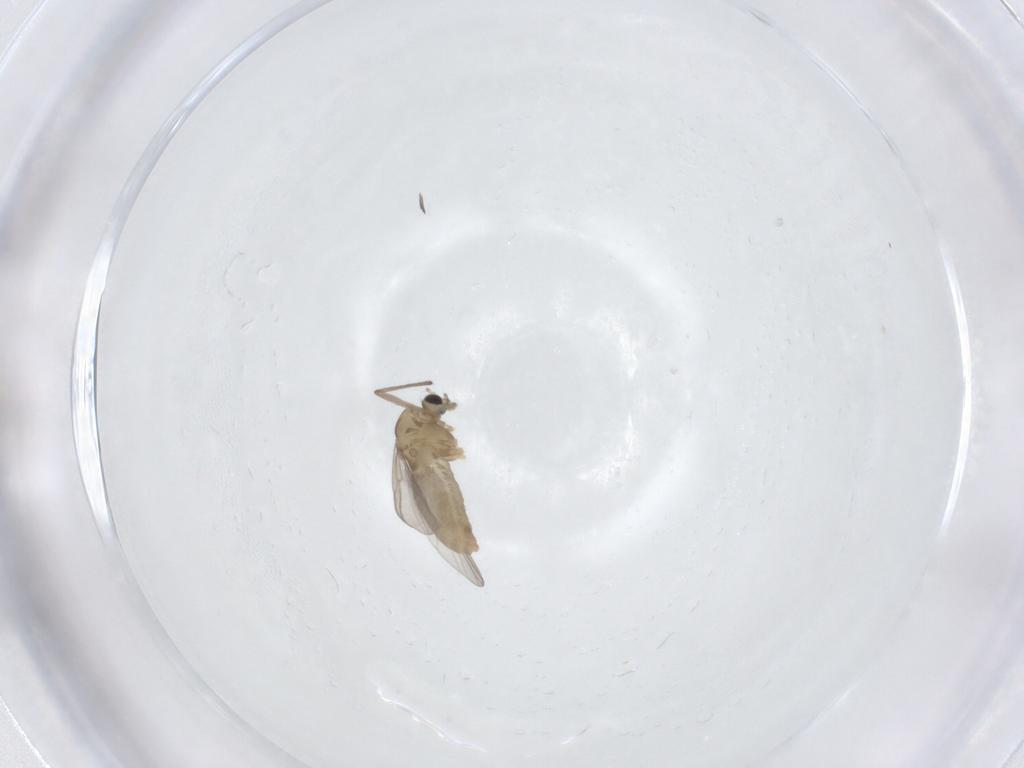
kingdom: Animalia
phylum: Arthropoda
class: Insecta
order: Diptera
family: Chironomidae
